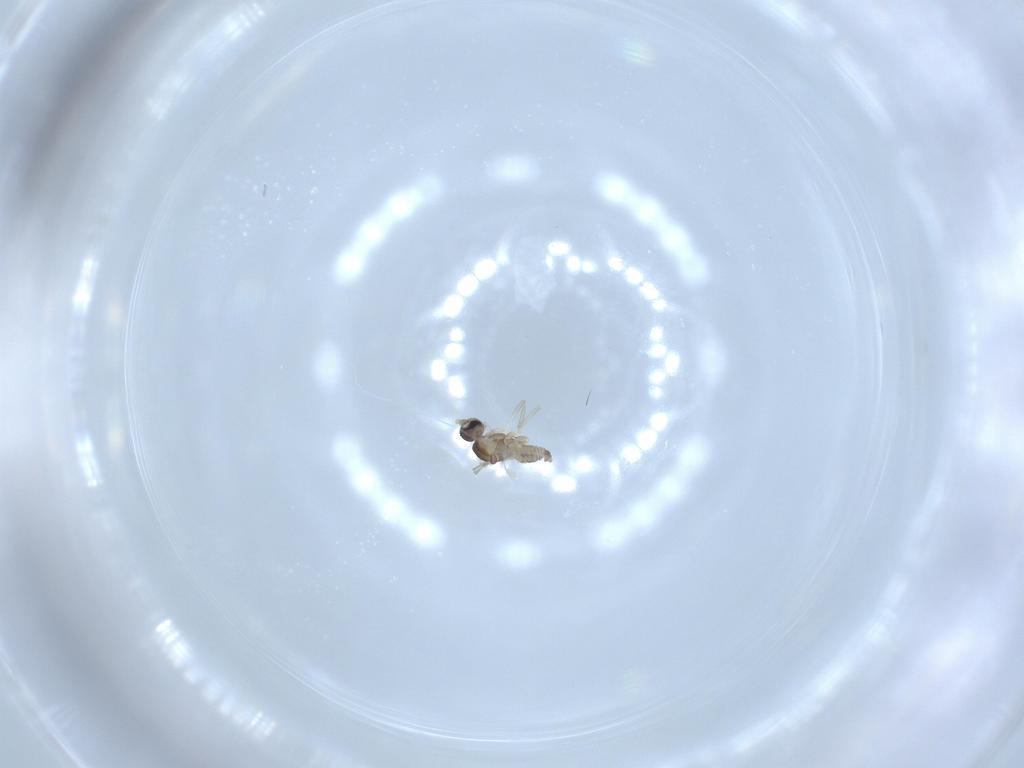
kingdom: Animalia
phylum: Arthropoda
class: Insecta
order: Diptera
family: Cecidomyiidae
